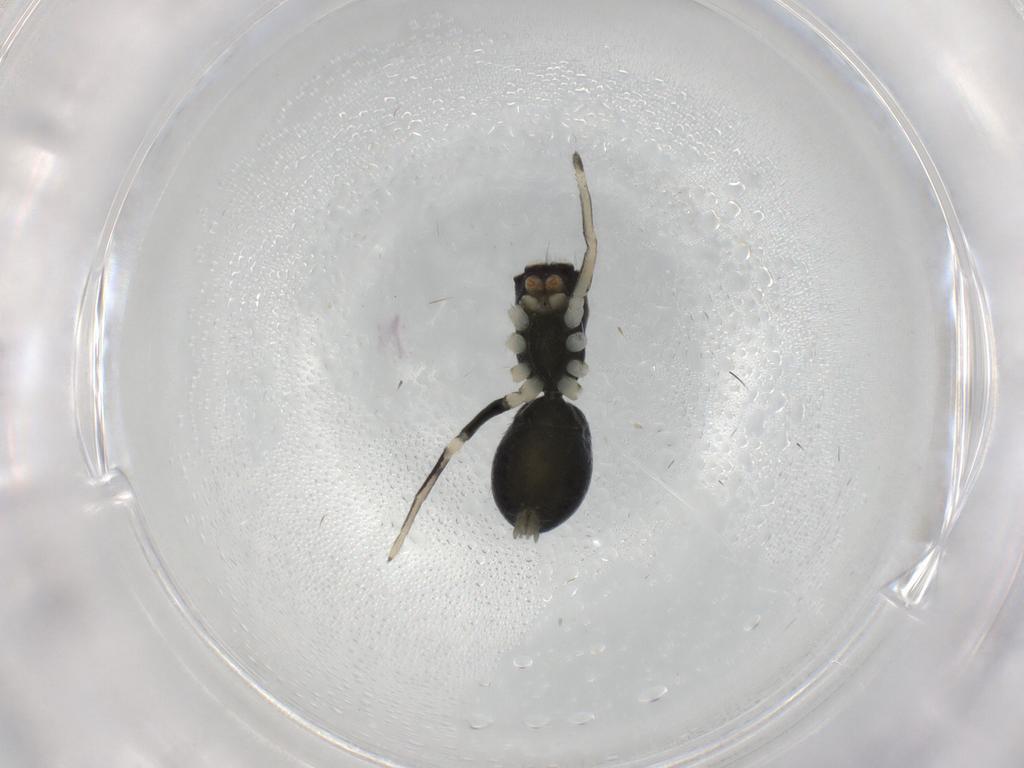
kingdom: Animalia
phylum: Arthropoda
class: Arachnida
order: Araneae
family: Salticidae
